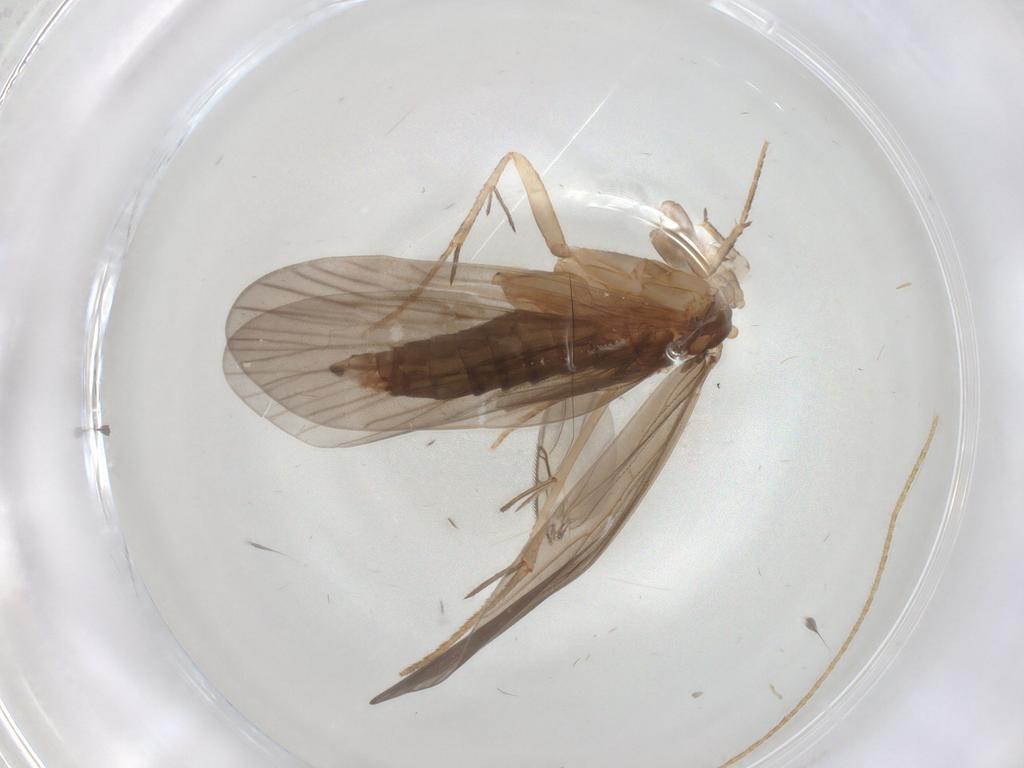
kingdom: Animalia
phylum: Arthropoda
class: Insecta
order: Trichoptera
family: Philopotamidae
